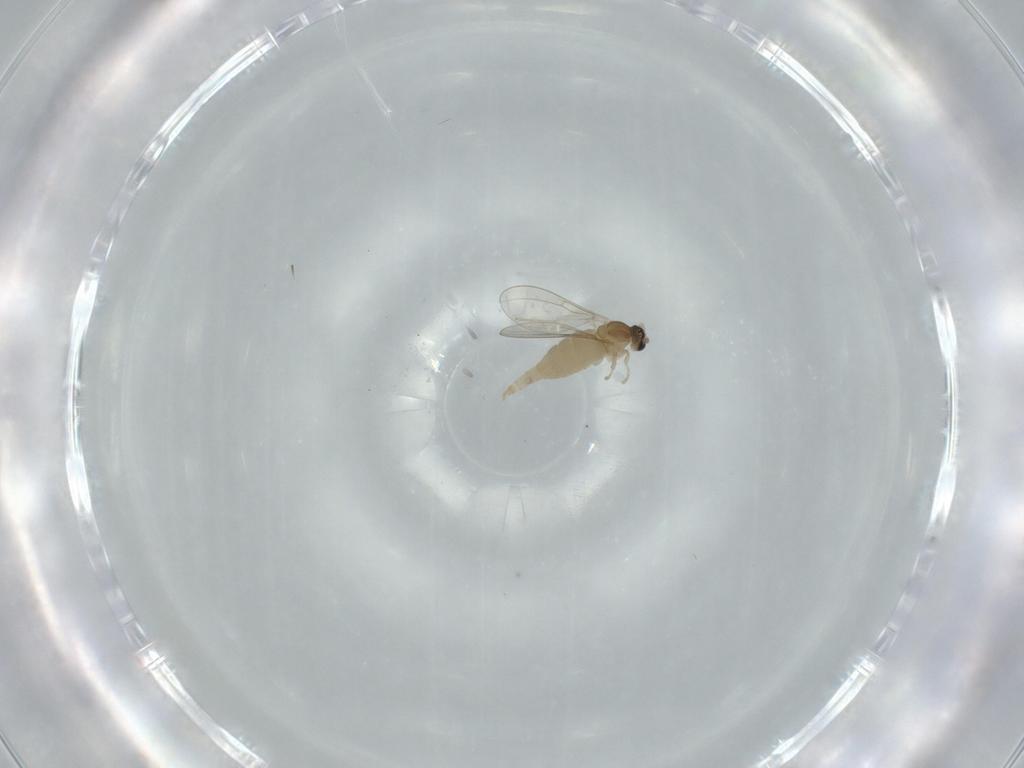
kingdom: Animalia
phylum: Arthropoda
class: Insecta
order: Diptera
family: Cecidomyiidae
